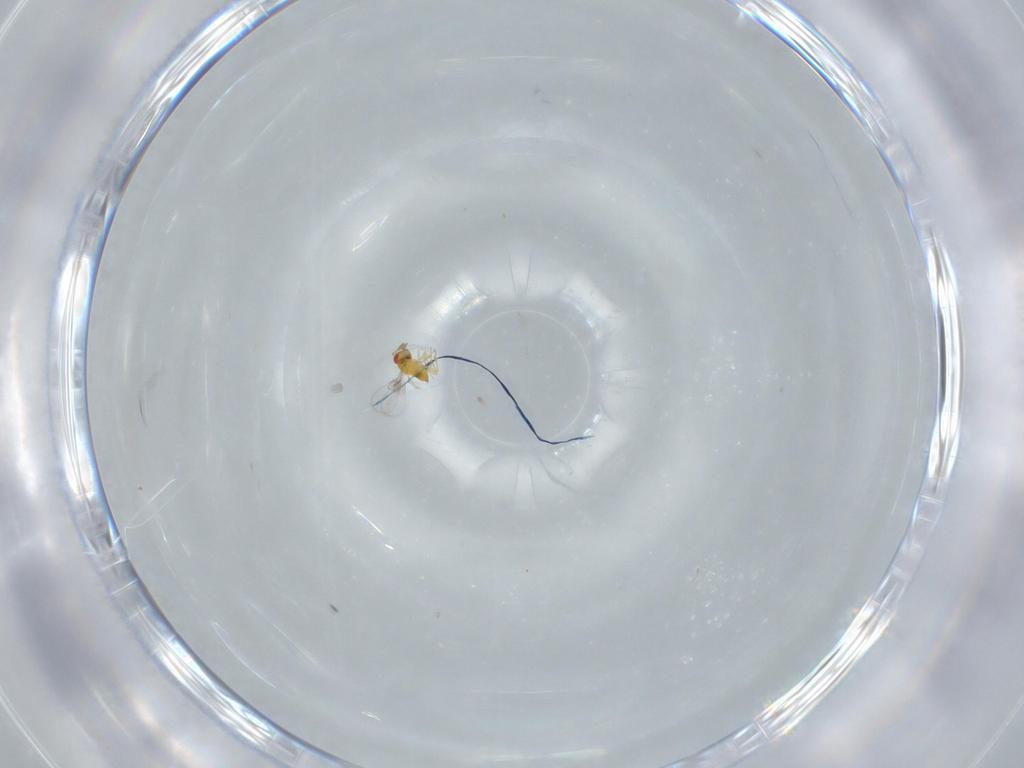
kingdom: Animalia
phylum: Arthropoda
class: Insecta
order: Hymenoptera
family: Trichogrammatidae
